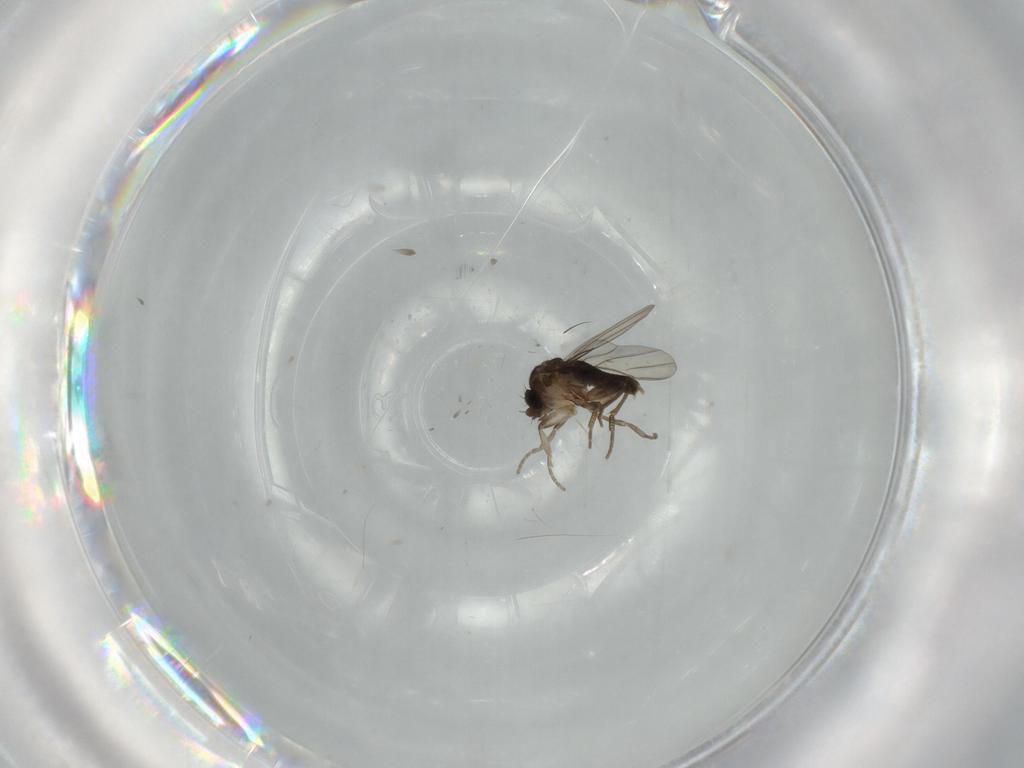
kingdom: Animalia
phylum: Arthropoda
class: Insecta
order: Diptera
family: Phoridae
